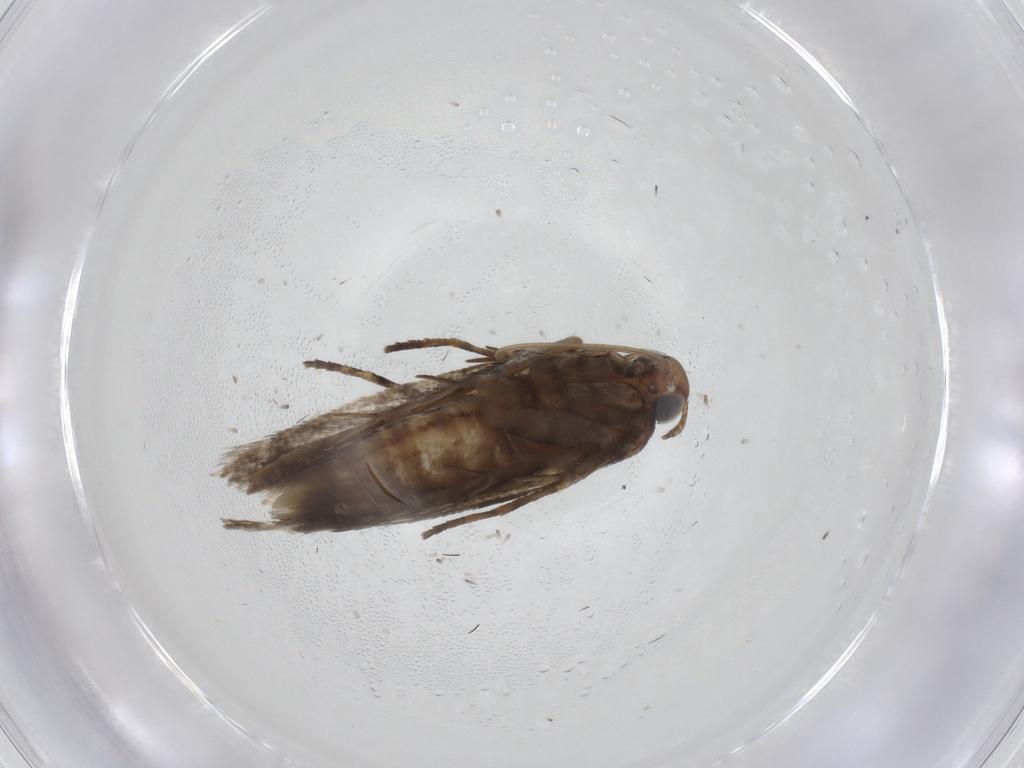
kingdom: Animalia
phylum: Arthropoda
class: Insecta
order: Lepidoptera
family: Gelechiidae
